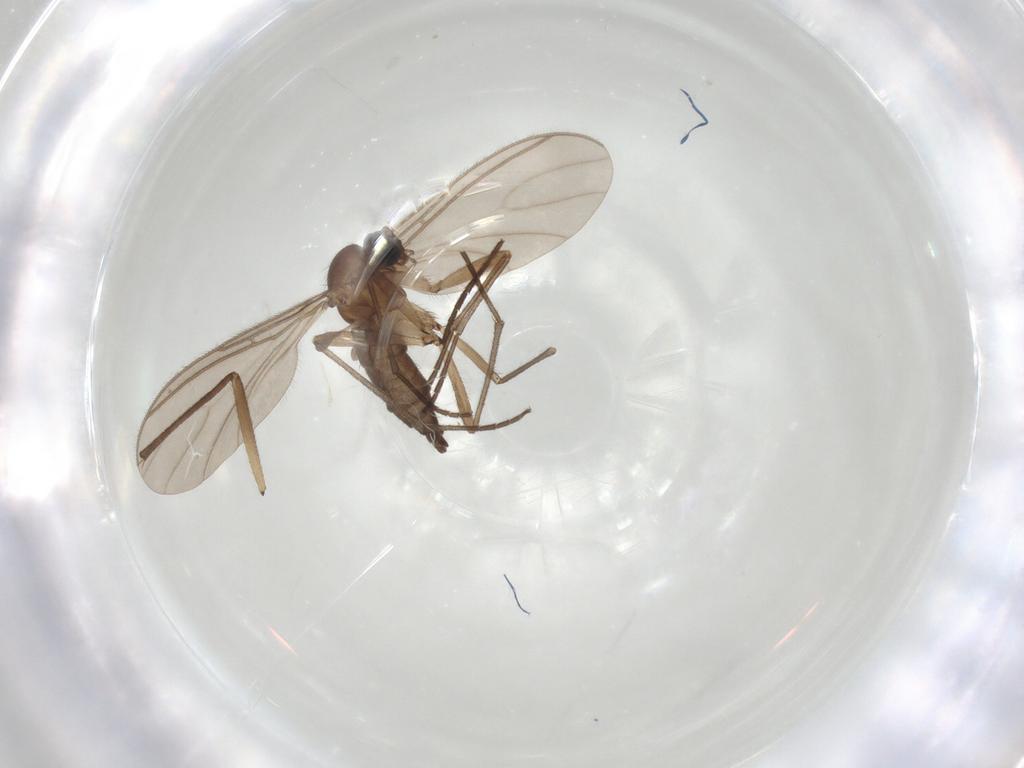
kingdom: Animalia
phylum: Arthropoda
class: Insecta
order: Diptera
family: Sciaridae
